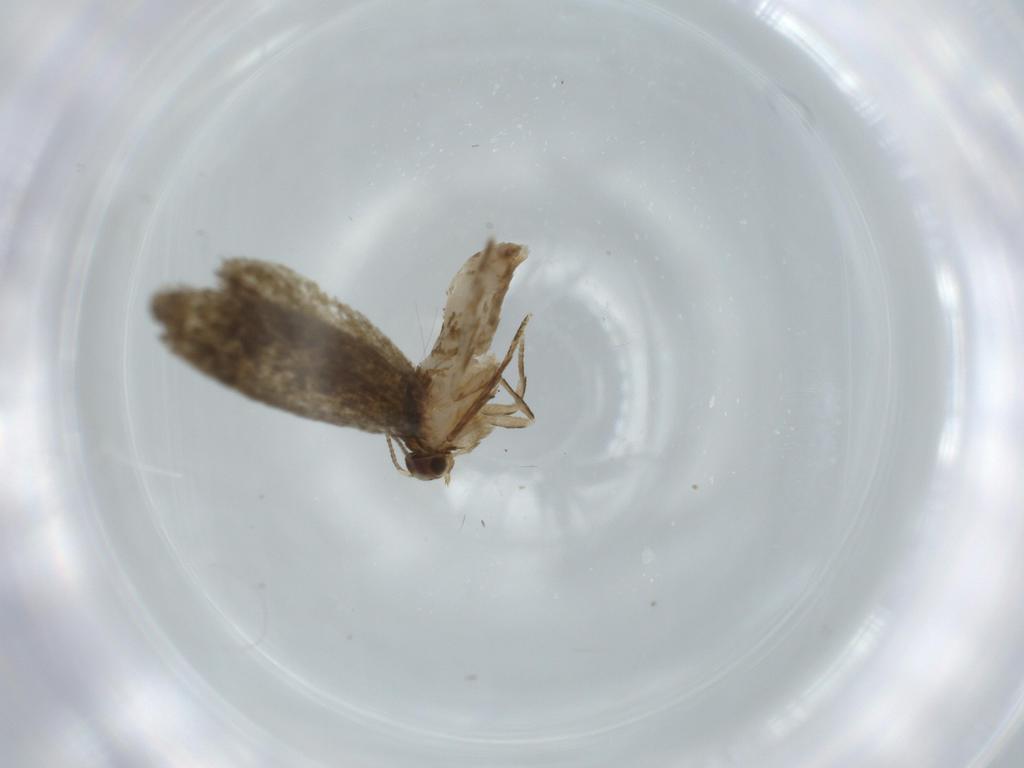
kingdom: Animalia
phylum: Arthropoda
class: Insecta
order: Lepidoptera
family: Tineidae
